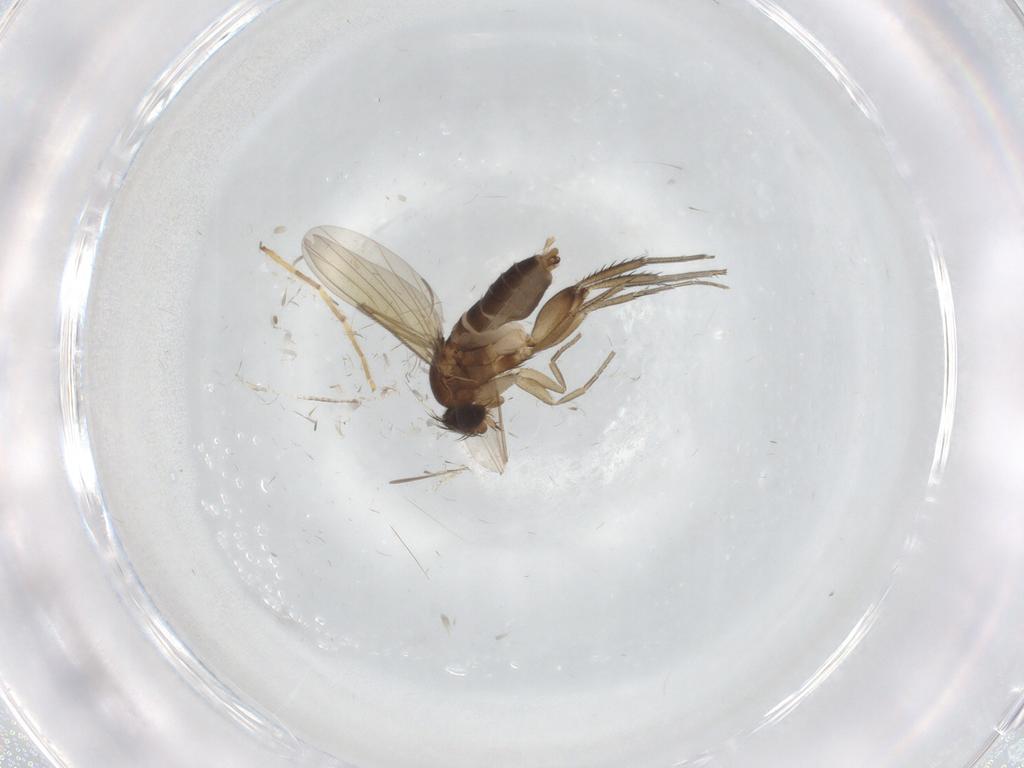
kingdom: Animalia
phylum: Arthropoda
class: Insecta
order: Diptera
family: Phoridae
